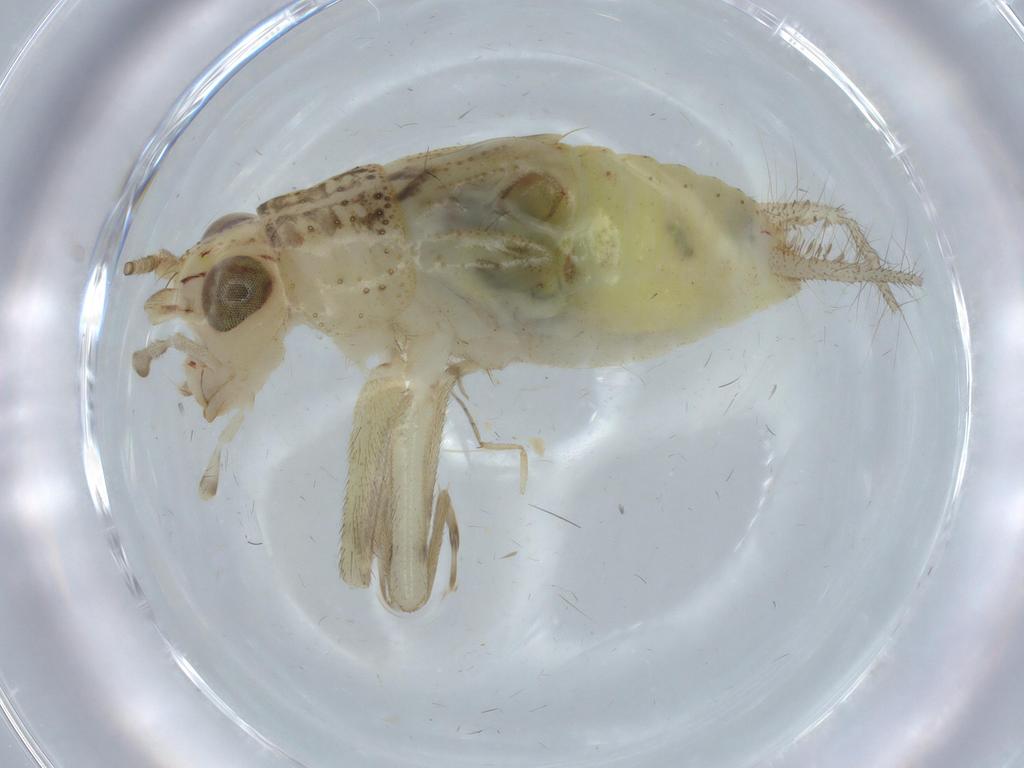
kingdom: Animalia
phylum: Arthropoda
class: Insecta
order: Orthoptera
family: Trigonidiidae
